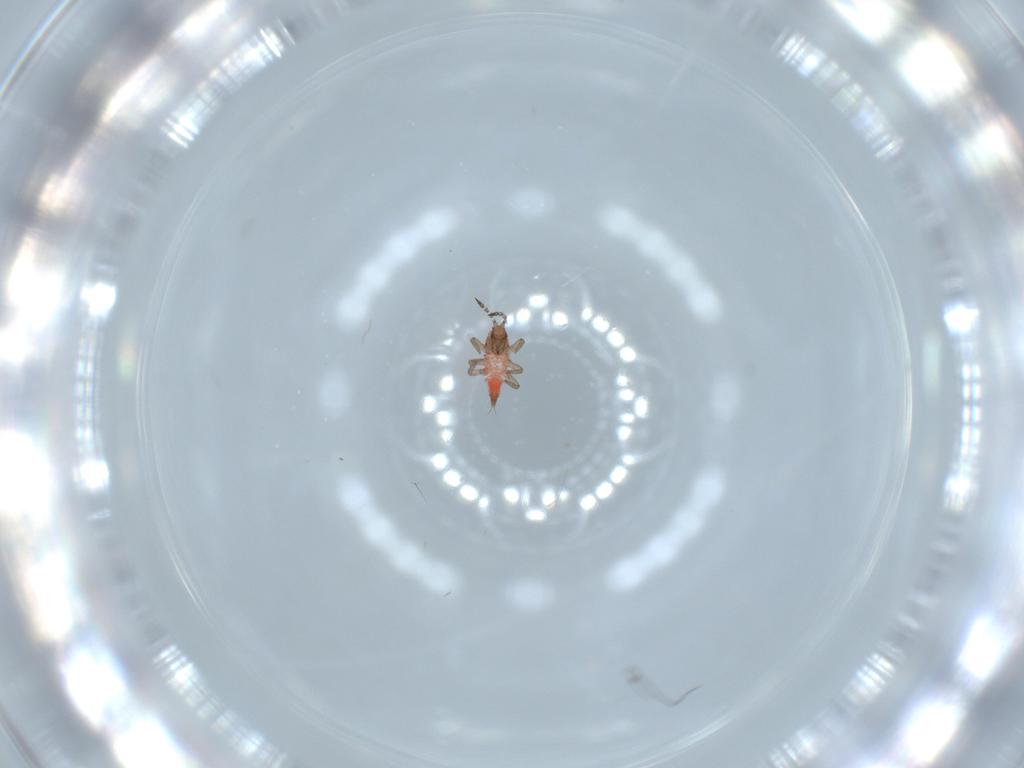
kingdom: Animalia
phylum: Arthropoda
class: Insecta
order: Thysanoptera
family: Phlaeothripidae
